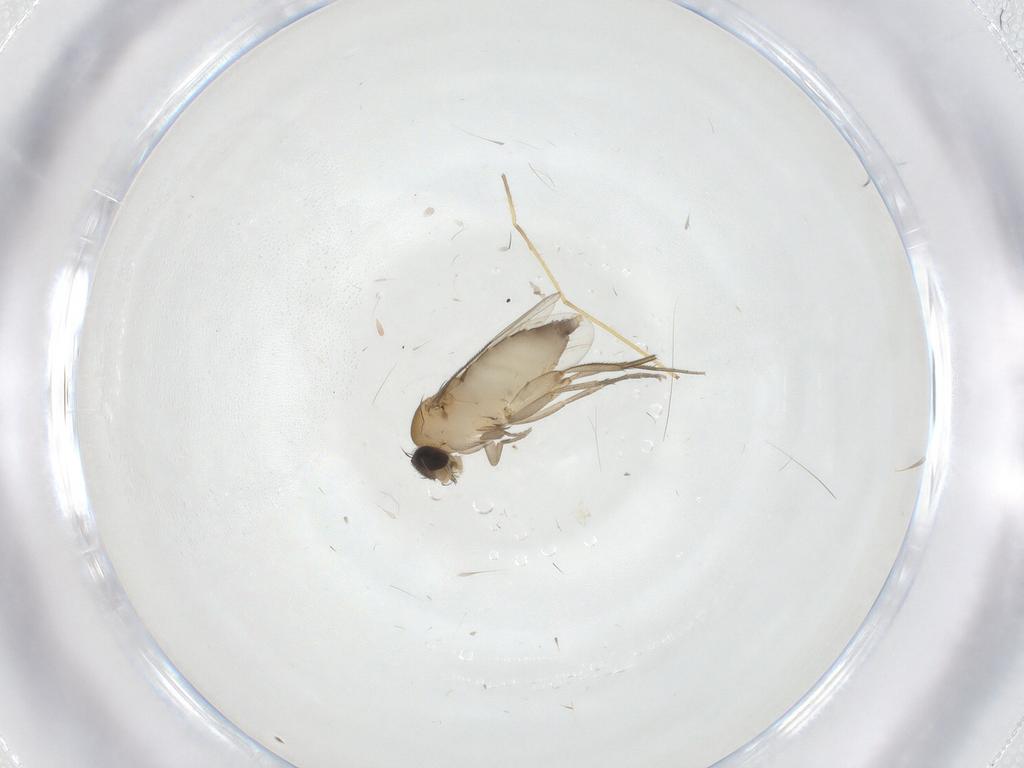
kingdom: Animalia
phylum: Arthropoda
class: Insecta
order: Diptera
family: Phoridae
